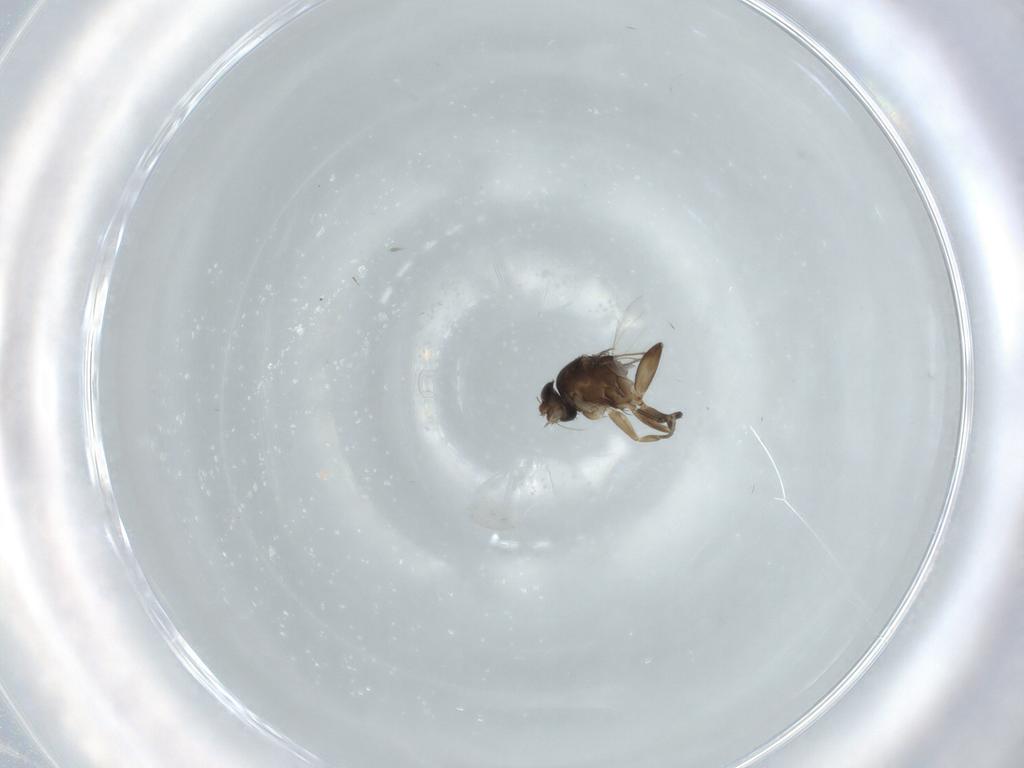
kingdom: Animalia
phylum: Arthropoda
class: Insecta
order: Diptera
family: Phoridae
